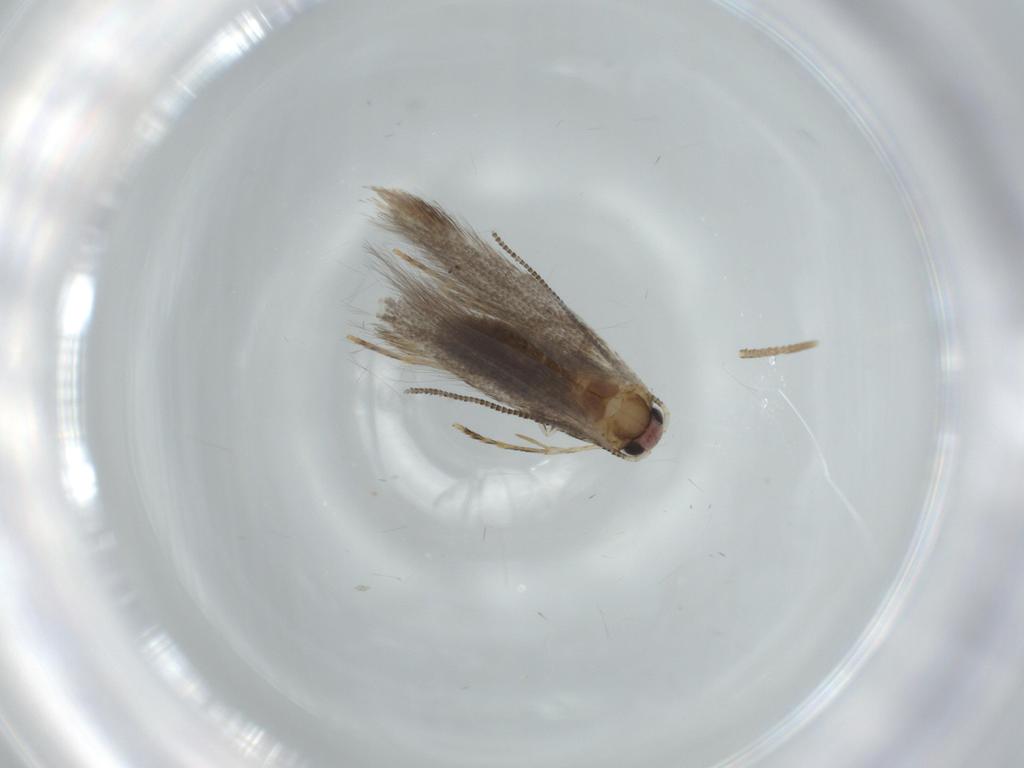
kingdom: Animalia
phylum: Arthropoda
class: Insecta
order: Lepidoptera
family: Tineidae
